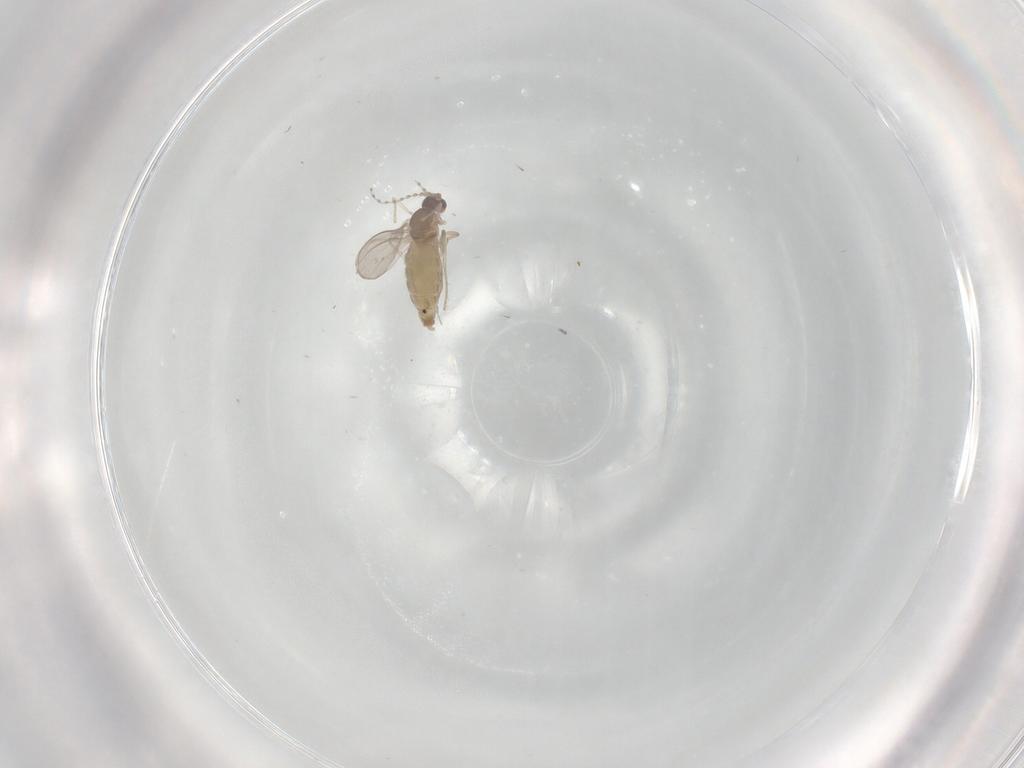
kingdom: Animalia
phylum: Arthropoda
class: Insecta
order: Diptera
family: Cecidomyiidae
